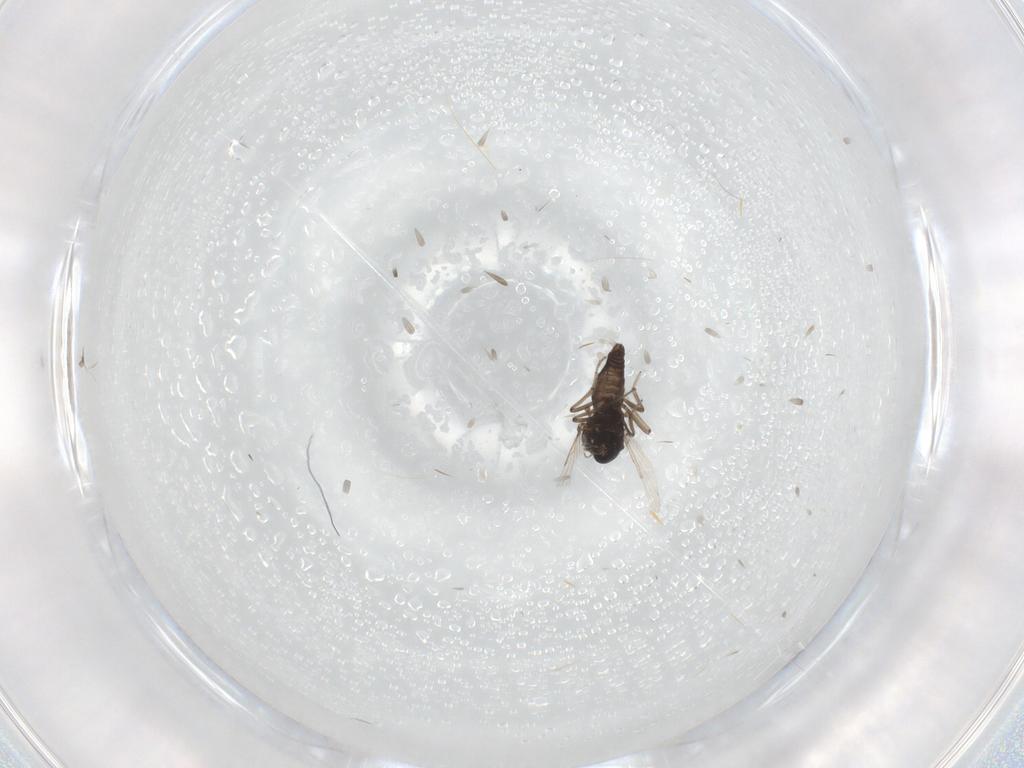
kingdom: Animalia
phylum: Arthropoda
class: Insecta
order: Diptera
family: Ceratopogonidae
